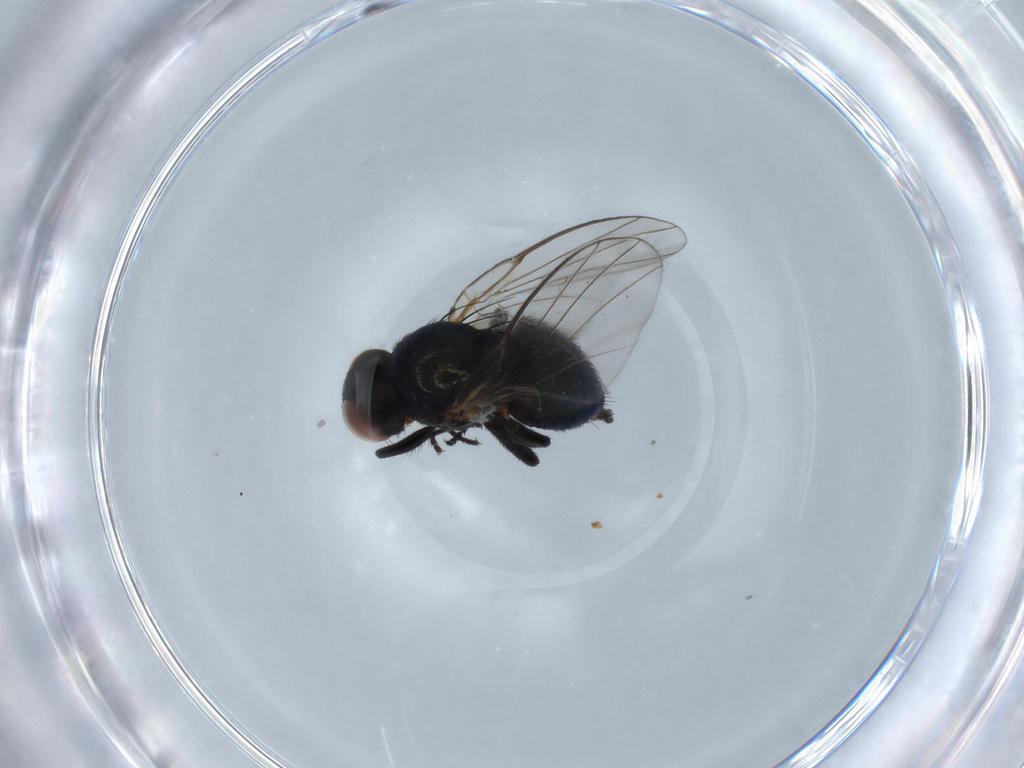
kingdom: Animalia
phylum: Arthropoda
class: Insecta
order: Diptera
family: Agromyzidae
